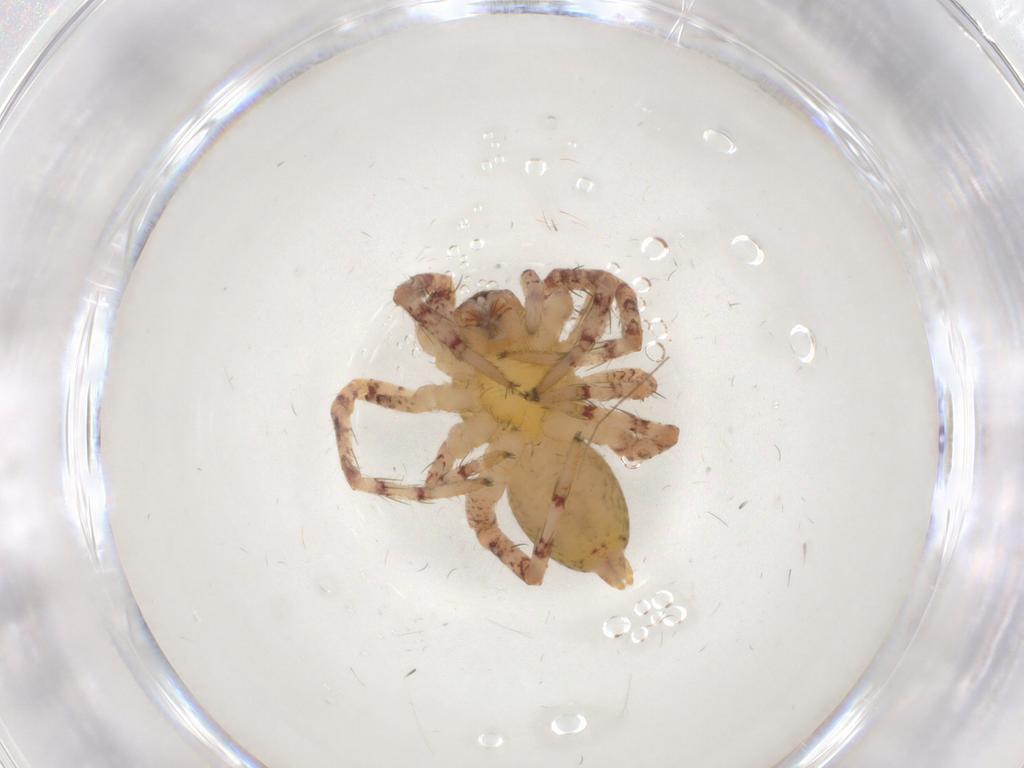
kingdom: Animalia
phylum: Arthropoda
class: Arachnida
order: Araneae
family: Anyphaenidae
